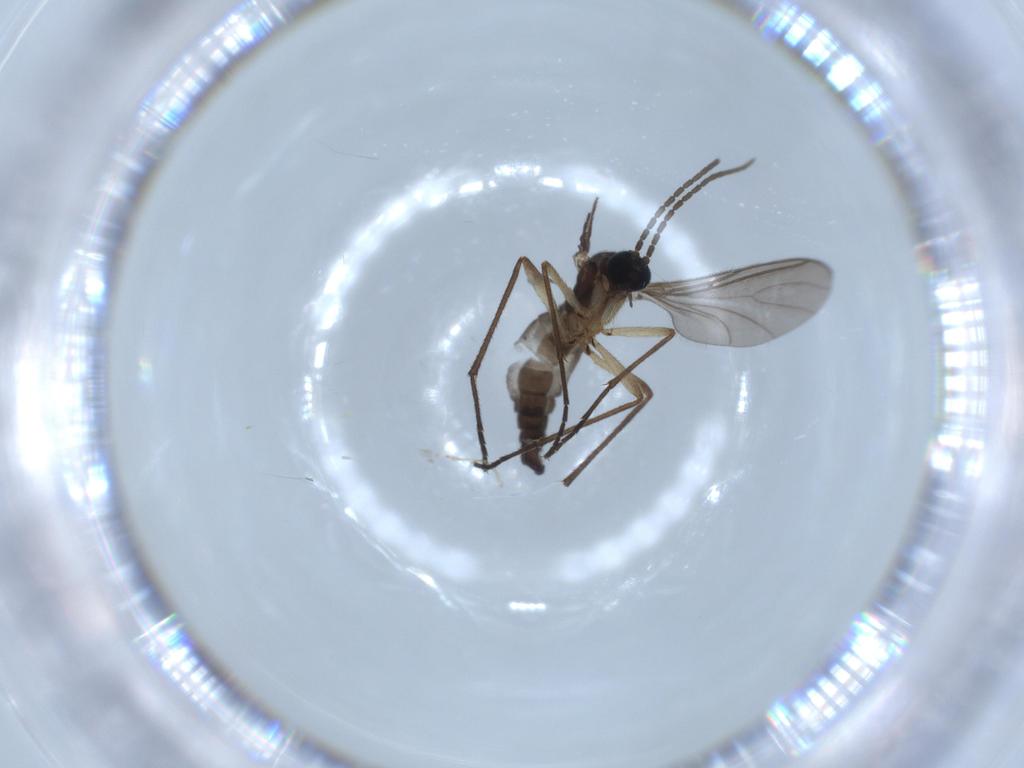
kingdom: Animalia
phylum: Arthropoda
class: Insecta
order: Diptera
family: Sciaridae
